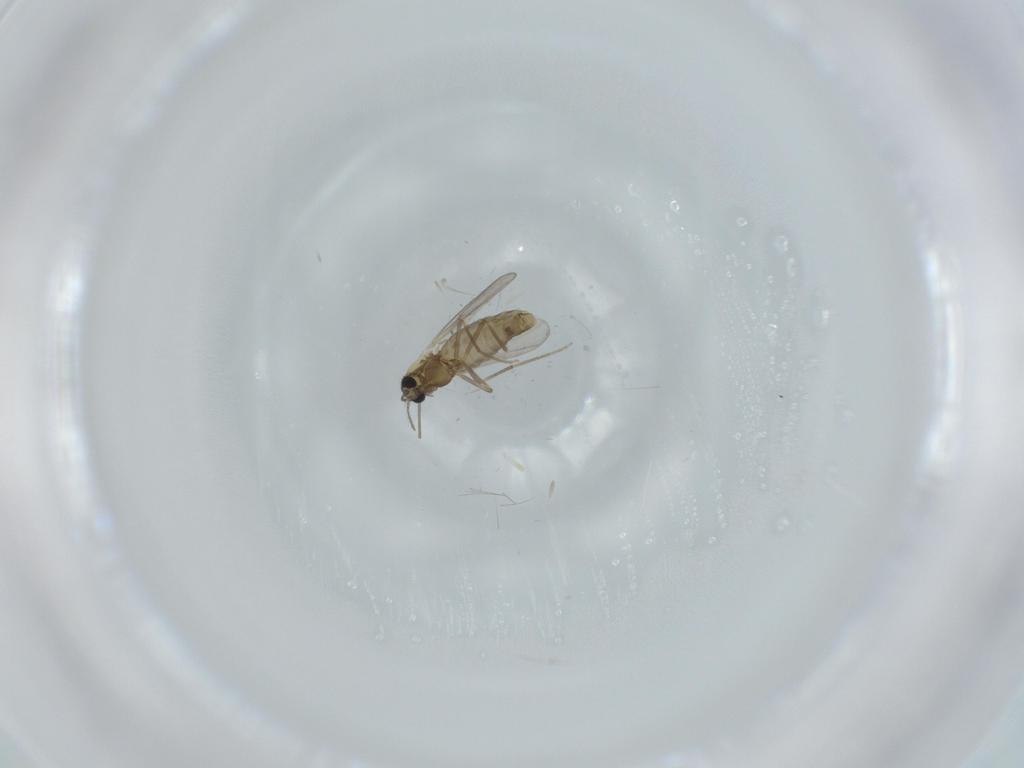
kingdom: Animalia
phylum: Arthropoda
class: Insecta
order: Diptera
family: Chironomidae
